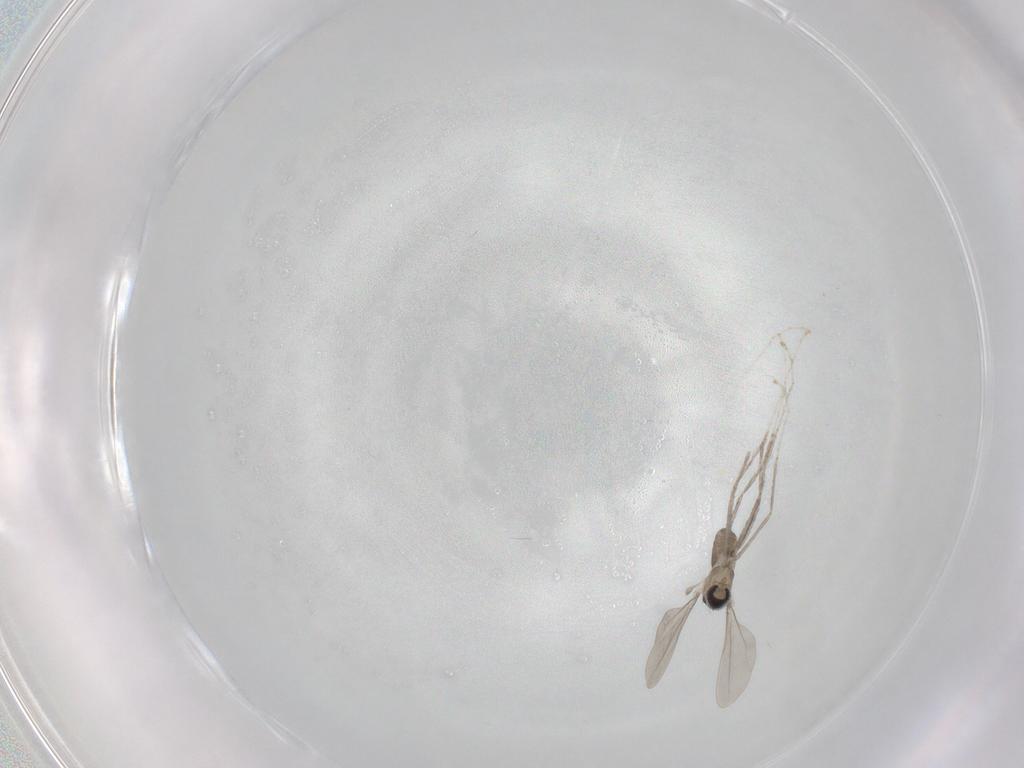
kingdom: Animalia
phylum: Arthropoda
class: Insecta
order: Diptera
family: Cecidomyiidae
